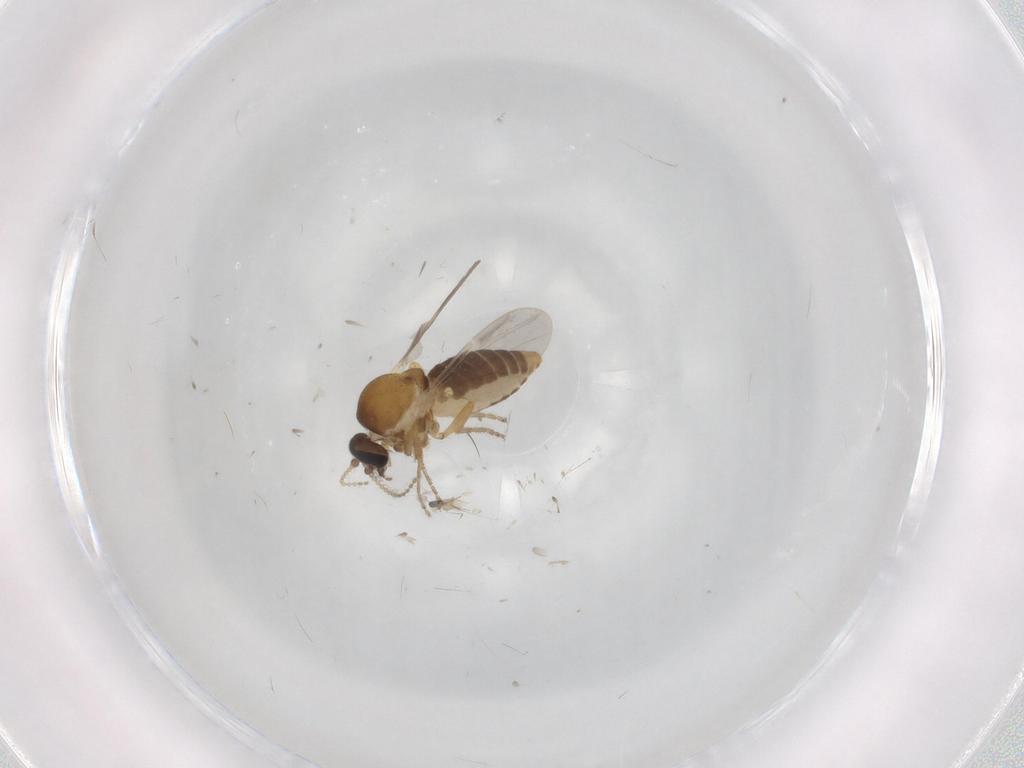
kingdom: Animalia
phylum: Arthropoda
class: Insecta
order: Diptera
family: Ceratopogonidae
